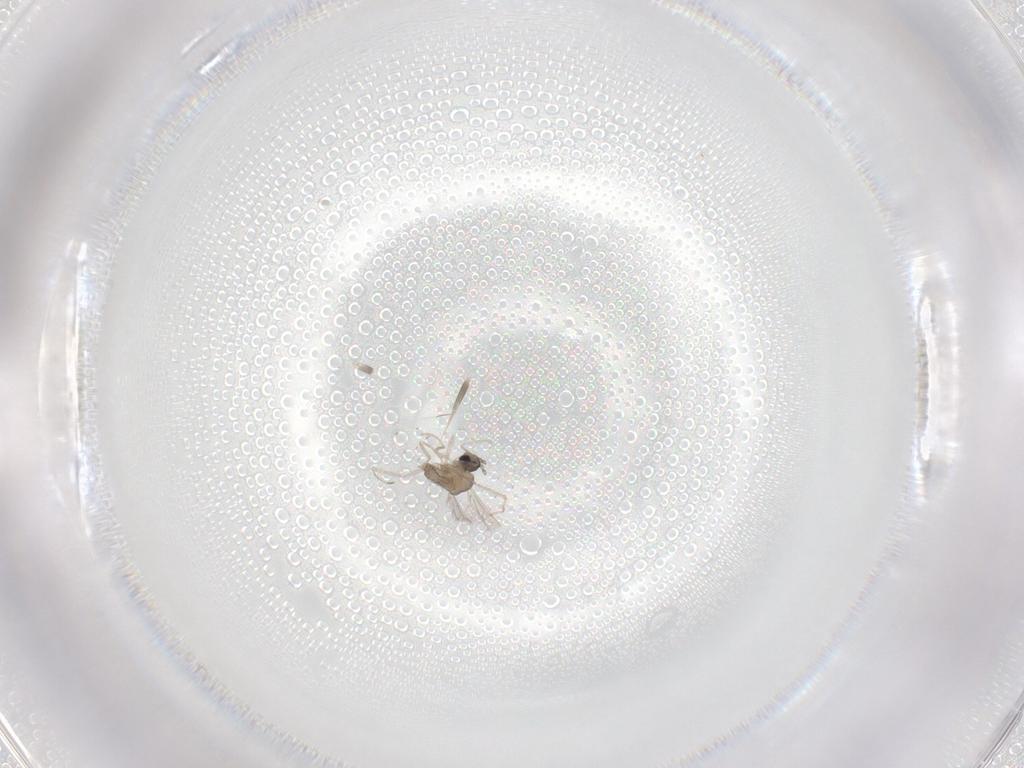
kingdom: Animalia
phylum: Arthropoda
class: Insecta
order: Diptera
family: Cecidomyiidae
